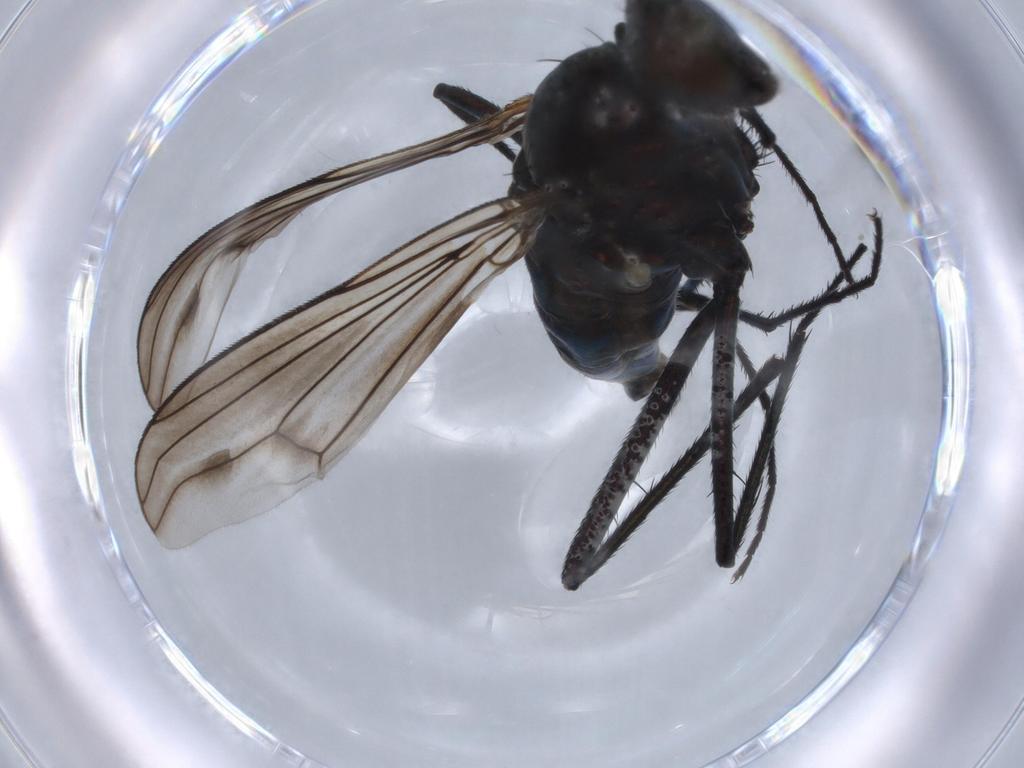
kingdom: Animalia
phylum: Arthropoda
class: Insecta
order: Diptera
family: Dolichopodidae
